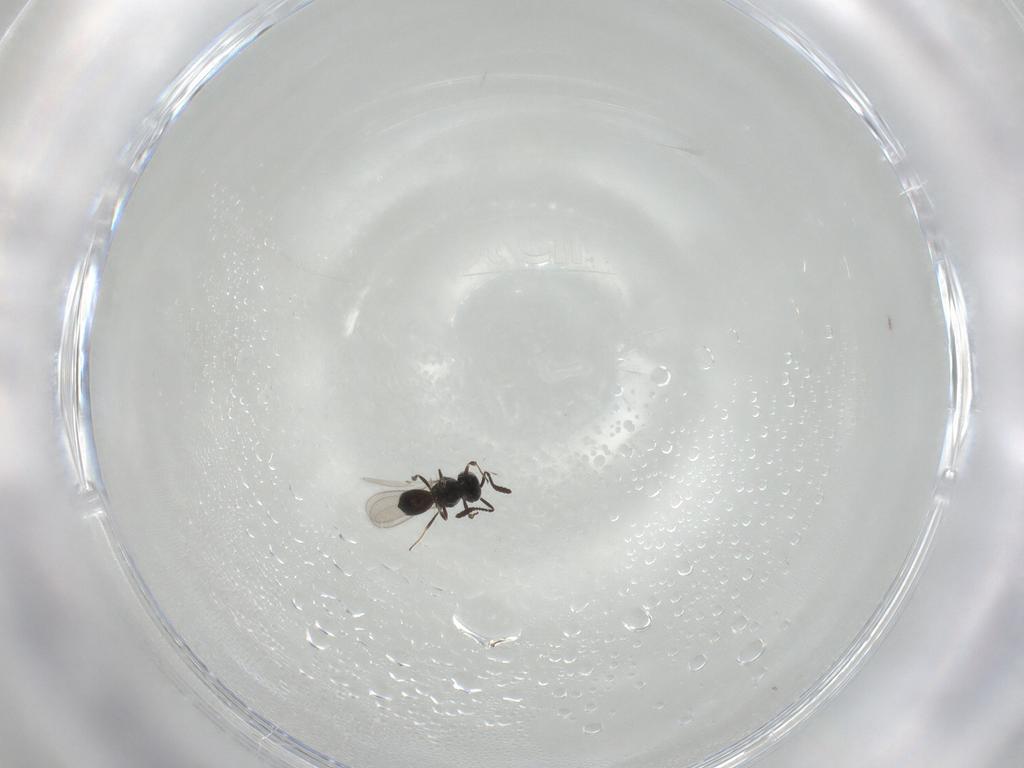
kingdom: Animalia
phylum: Arthropoda
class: Insecta
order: Hymenoptera
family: Scelionidae
